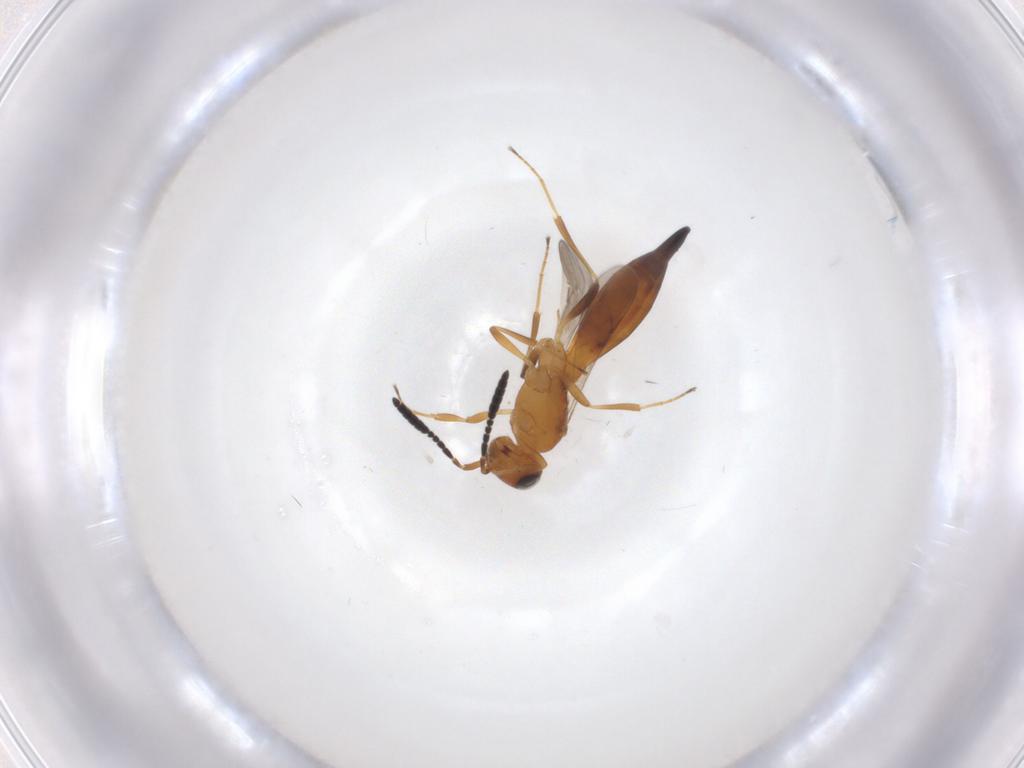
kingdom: Animalia
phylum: Arthropoda
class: Insecta
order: Hymenoptera
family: Scelionidae
